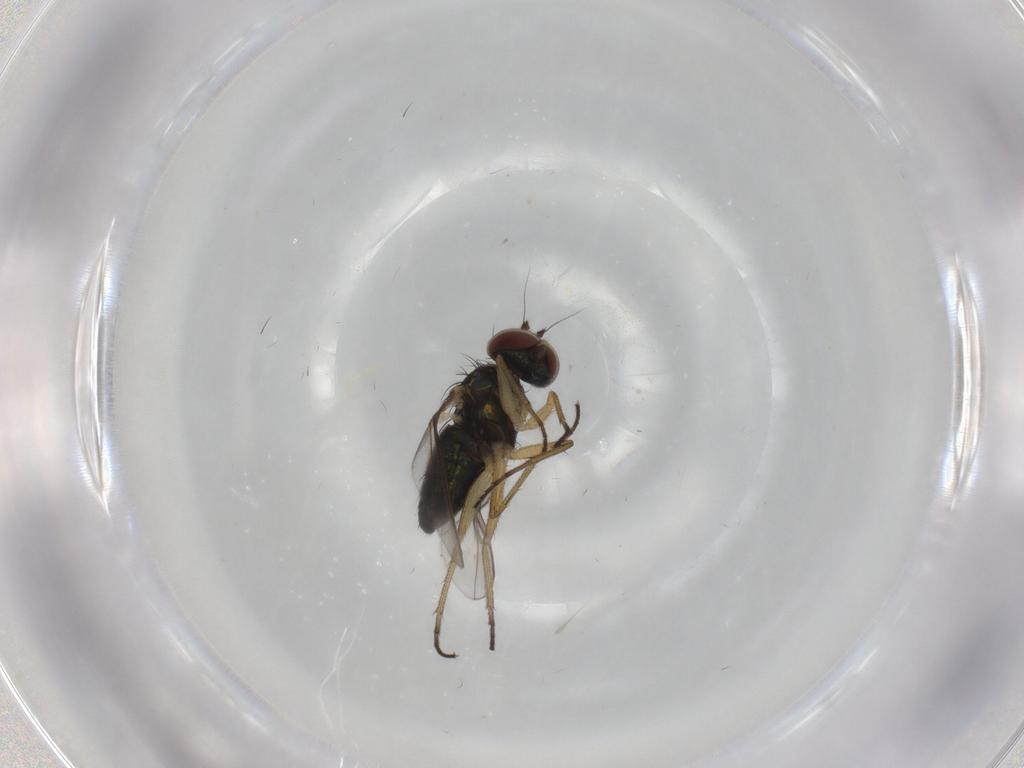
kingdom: Animalia
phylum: Arthropoda
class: Insecta
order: Diptera
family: Dolichopodidae
